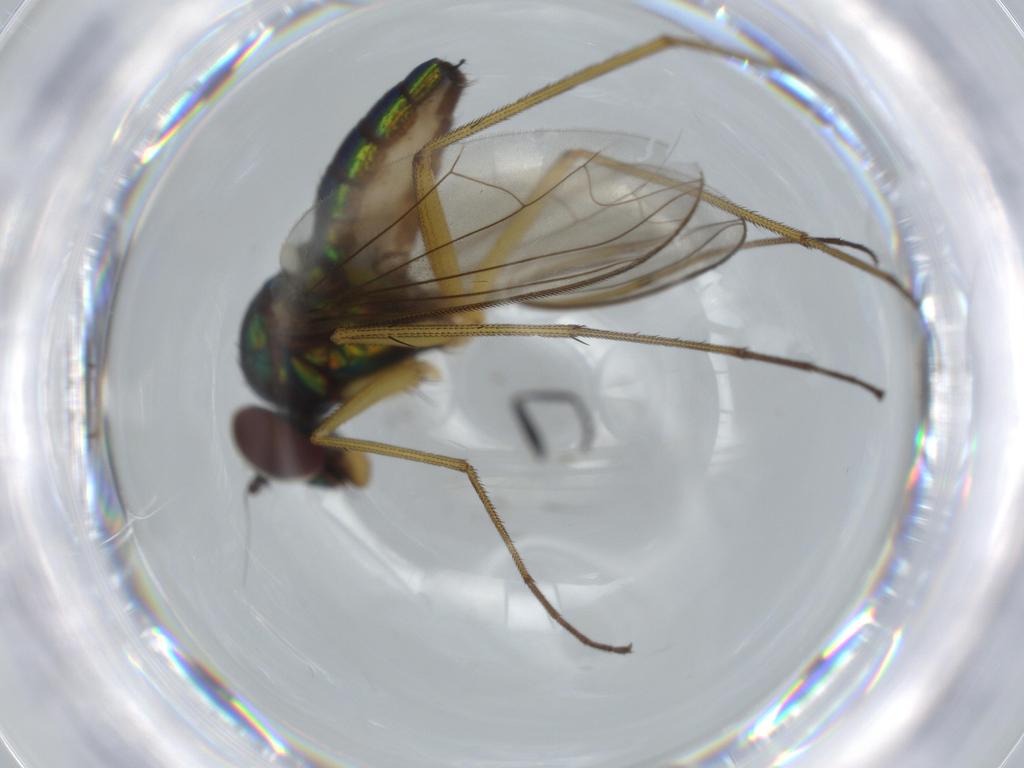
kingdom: Animalia
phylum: Arthropoda
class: Insecta
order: Diptera
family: Dolichopodidae
